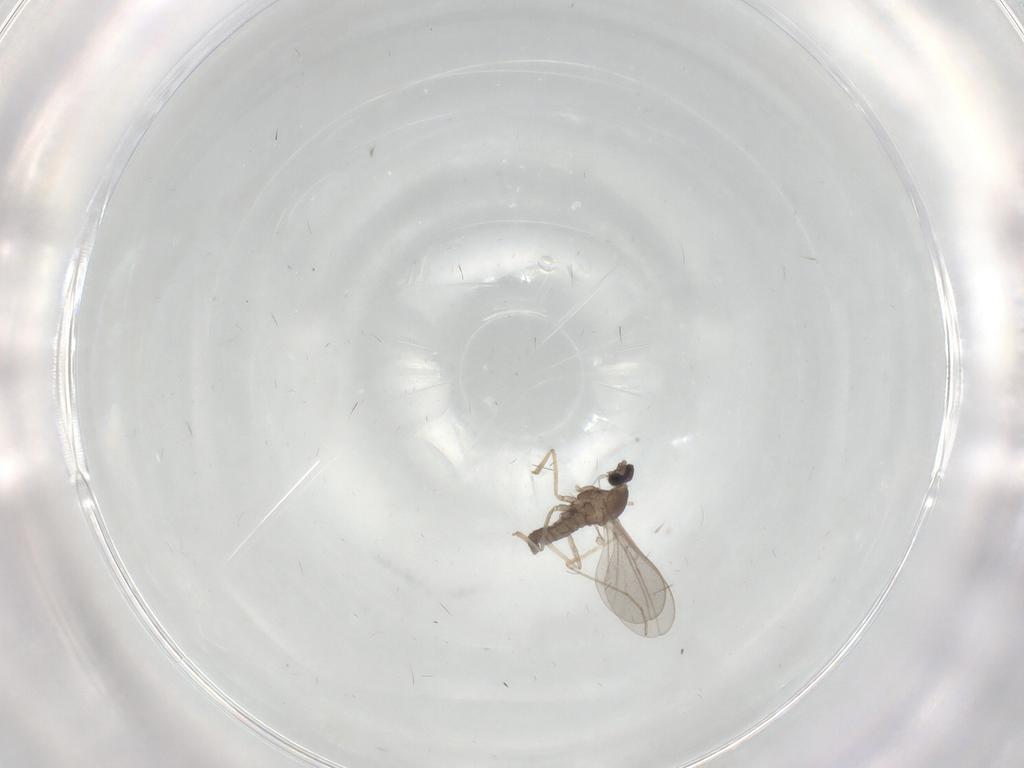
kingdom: Animalia
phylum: Arthropoda
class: Insecta
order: Diptera
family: Cecidomyiidae
